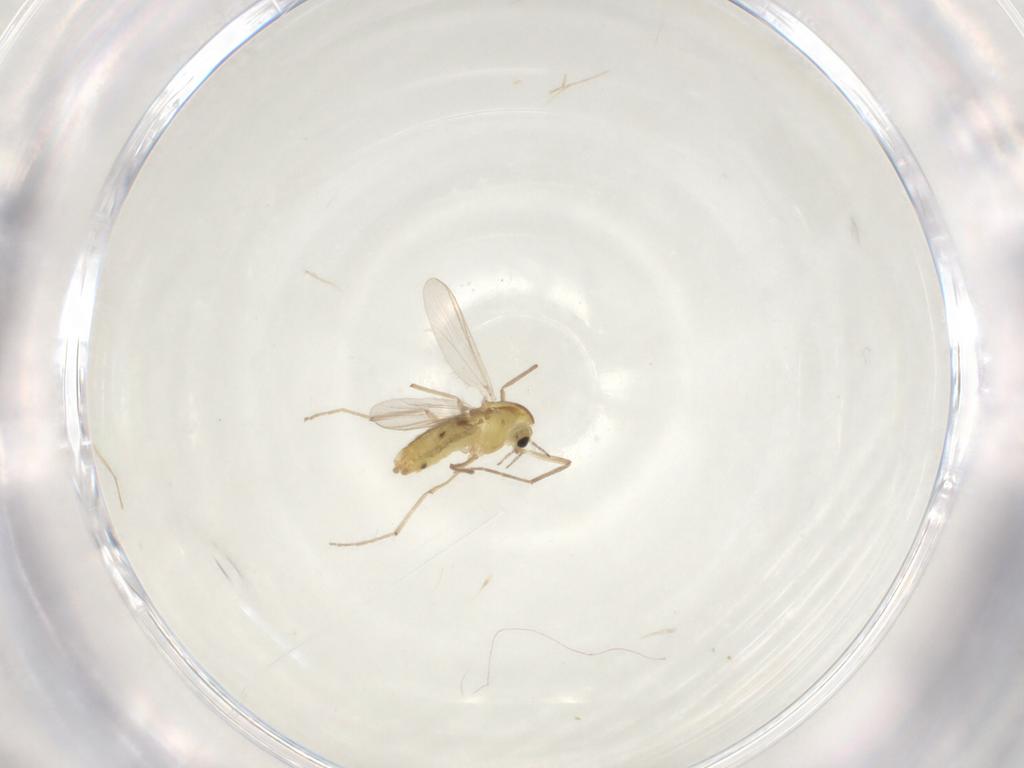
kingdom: Animalia
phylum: Arthropoda
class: Insecta
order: Diptera
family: Chironomidae
